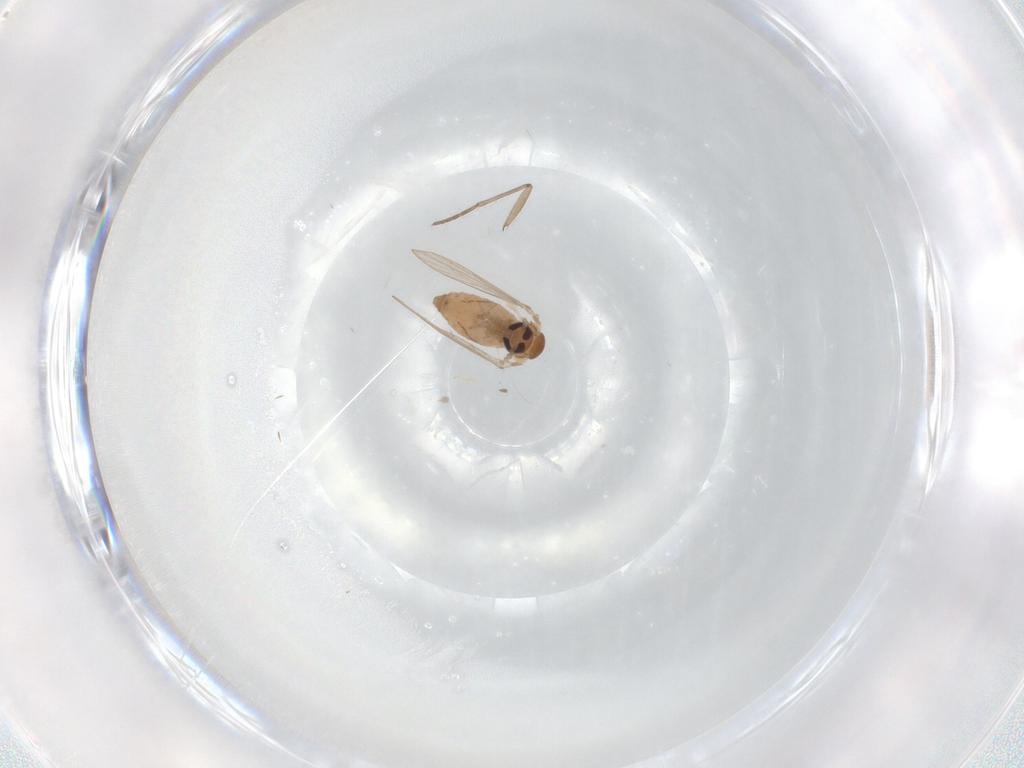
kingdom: Animalia
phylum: Arthropoda
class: Insecta
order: Diptera
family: Psychodidae
